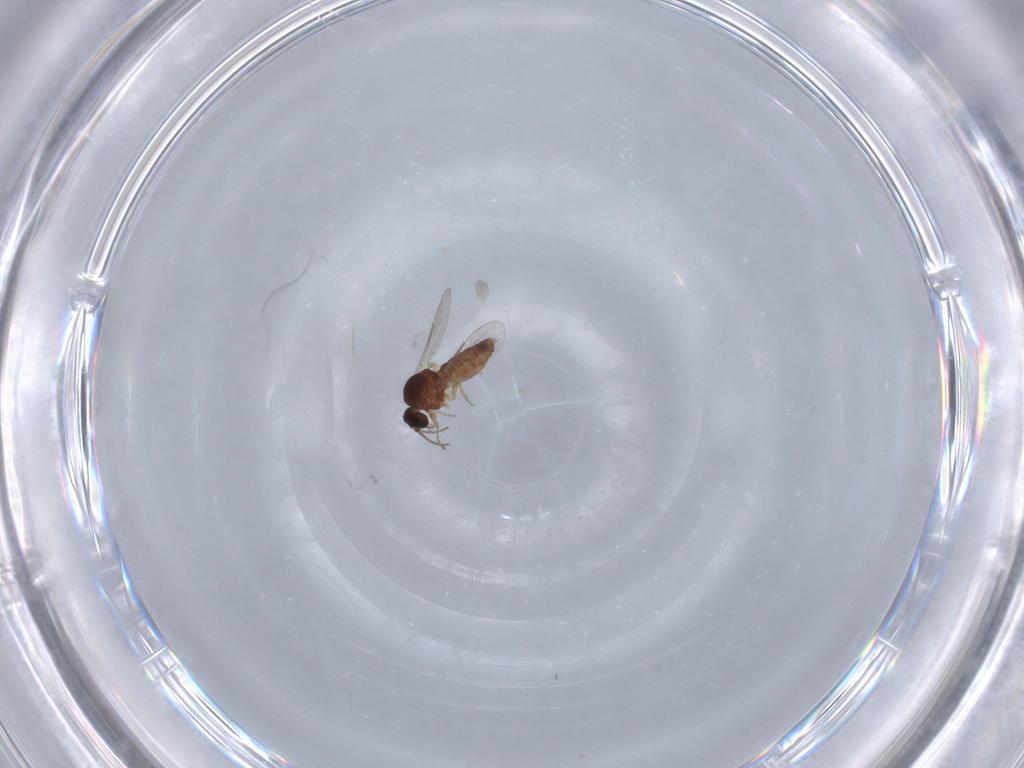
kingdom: Animalia
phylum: Arthropoda
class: Insecta
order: Diptera
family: Ceratopogonidae
